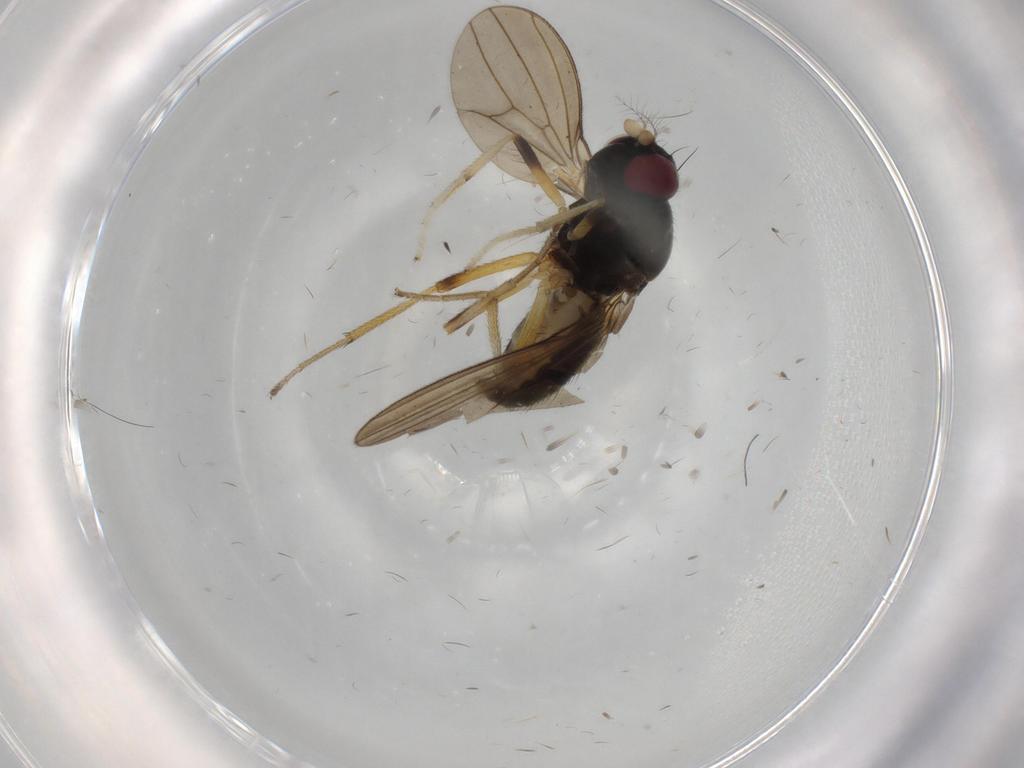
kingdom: Animalia
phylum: Arthropoda
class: Insecta
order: Diptera
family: Lauxaniidae
